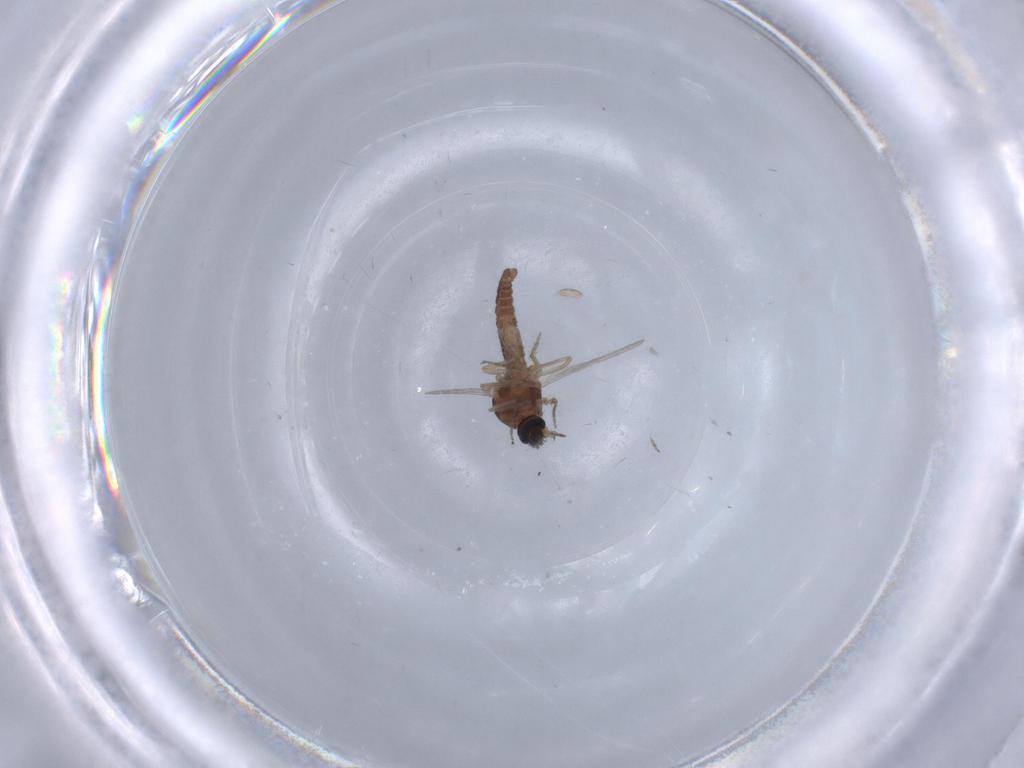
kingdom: Animalia
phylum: Arthropoda
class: Insecta
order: Diptera
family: Cecidomyiidae
